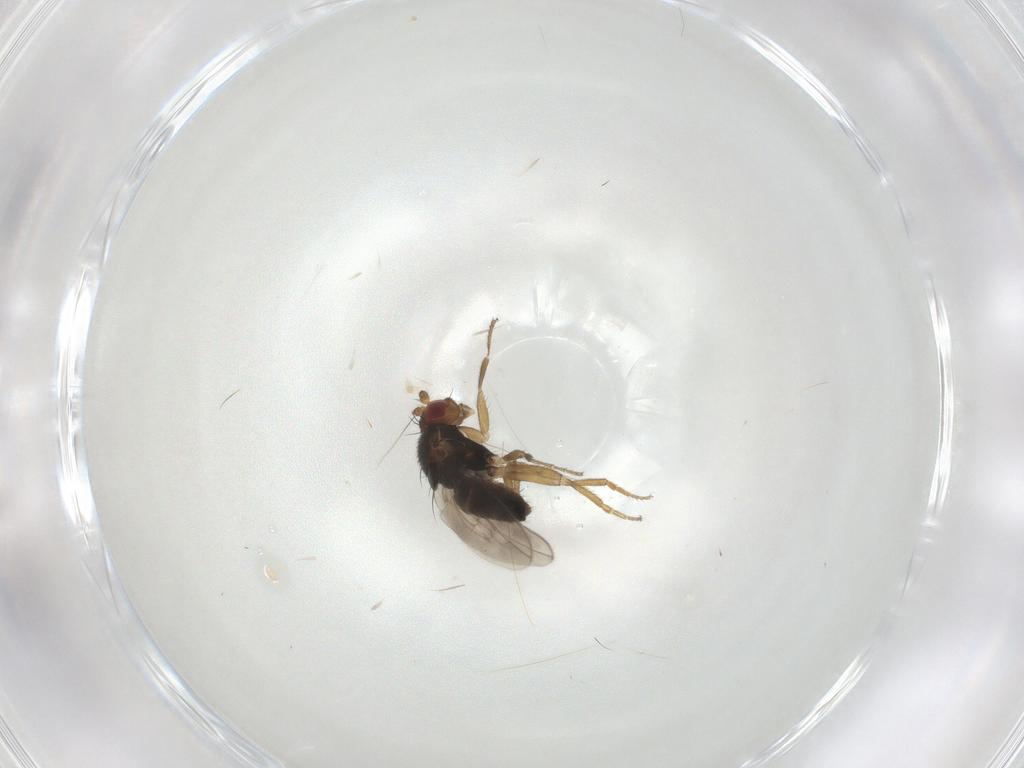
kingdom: Animalia
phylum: Arthropoda
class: Insecta
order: Diptera
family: Sphaeroceridae
